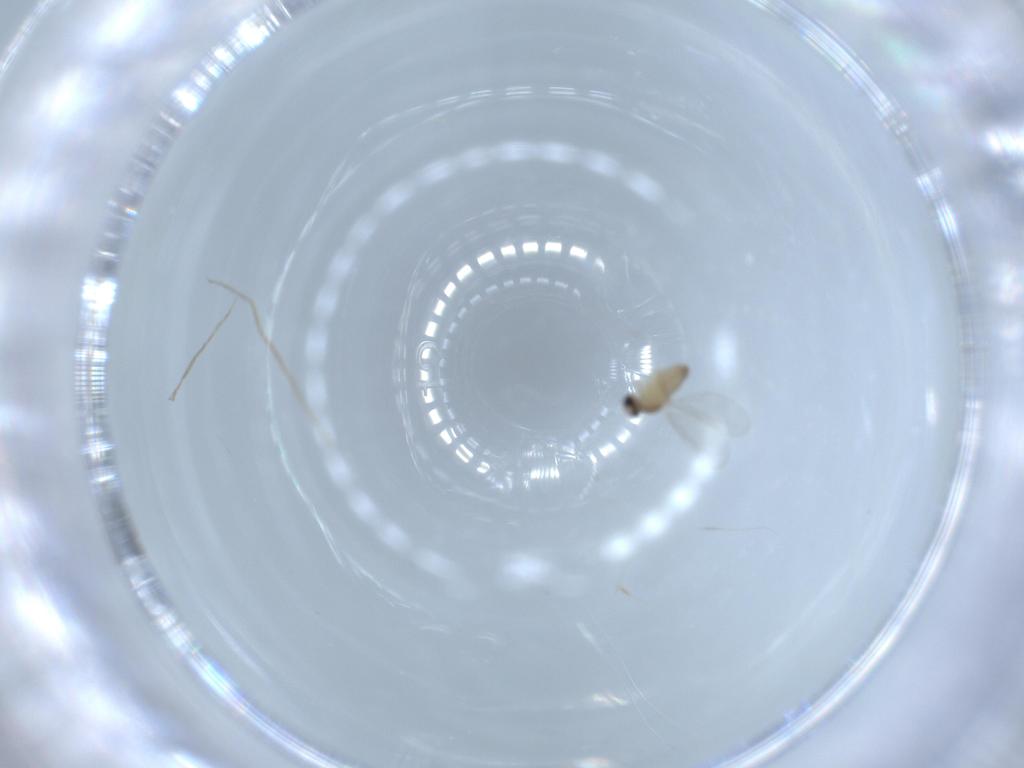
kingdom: Animalia
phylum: Arthropoda
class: Insecta
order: Diptera
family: Cecidomyiidae
